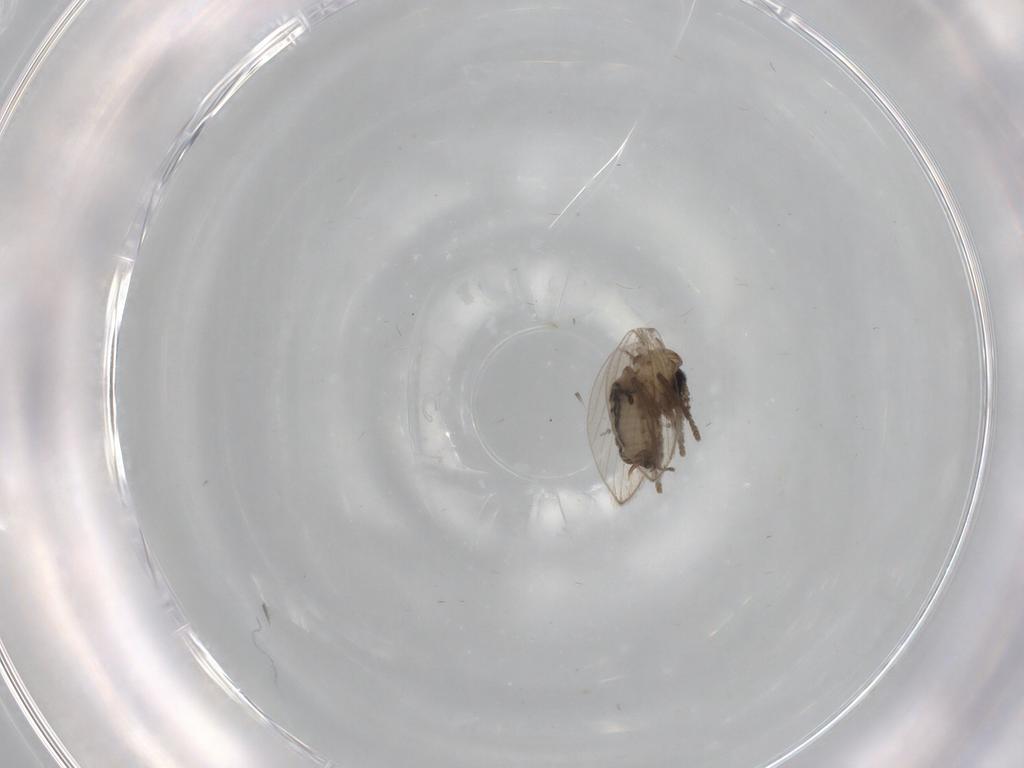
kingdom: Animalia
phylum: Arthropoda
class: Insecta
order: Diptera
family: Psychodidae
